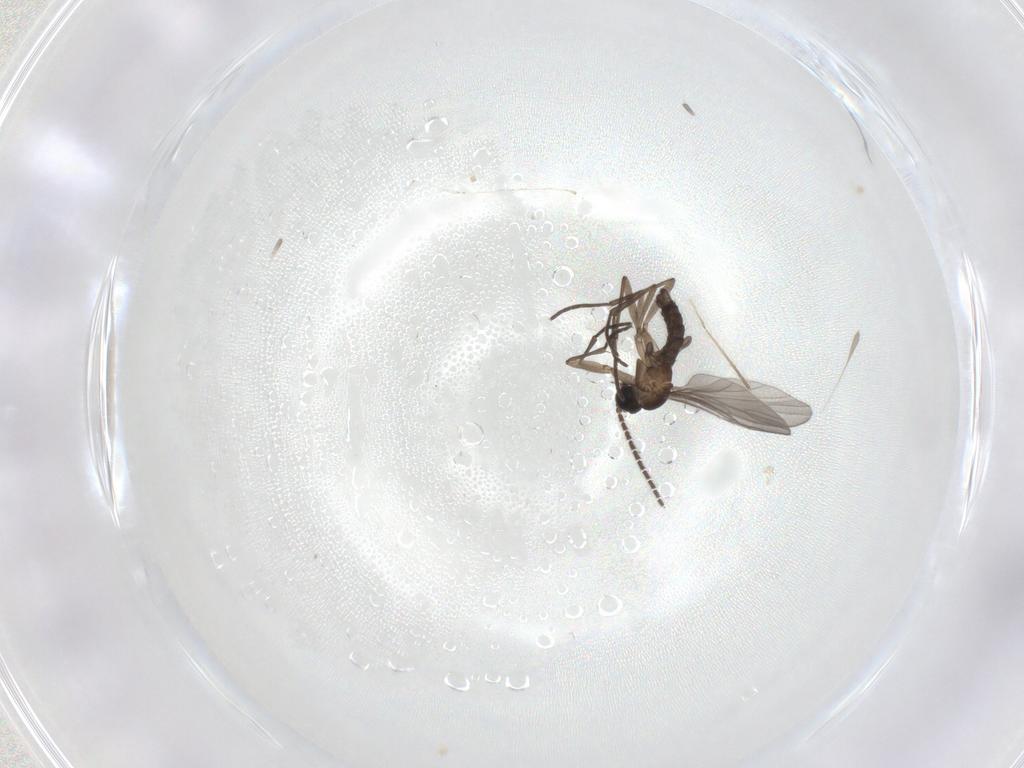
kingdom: Animalia
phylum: Arthropoda
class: Insecta
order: Diptera
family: Sciaridae
